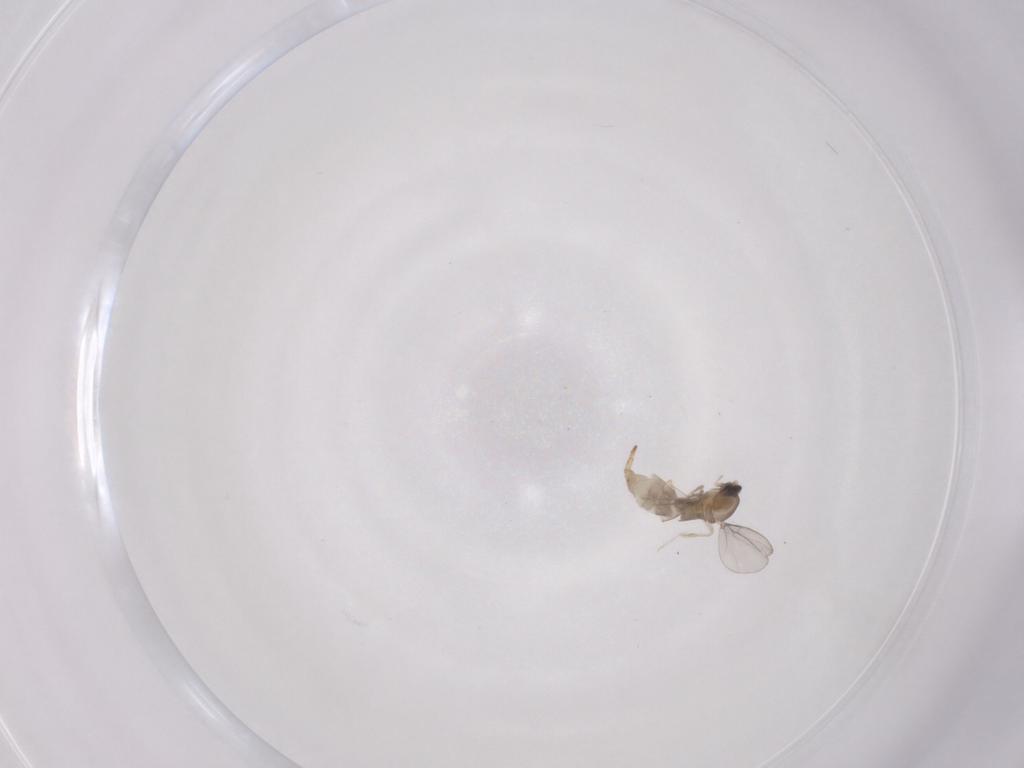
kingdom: Animalia
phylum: Arthropoda
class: Insecta
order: Diptera
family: Cecidomyiidae
